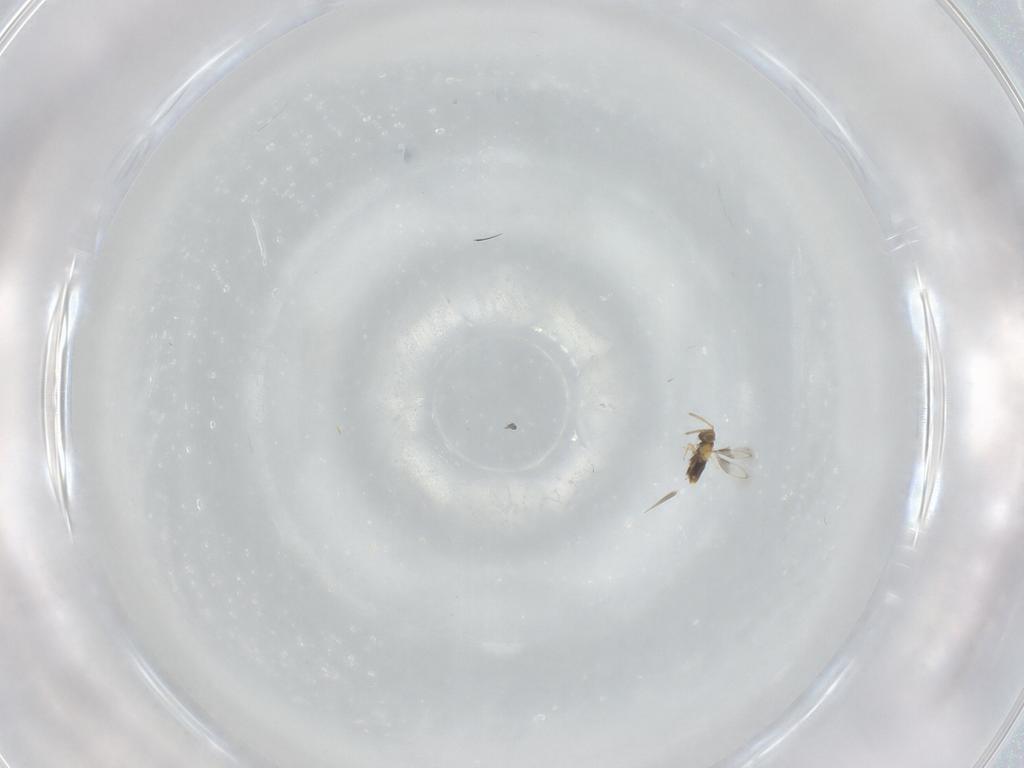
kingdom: Animalia
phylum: Arthropoda
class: Insecta
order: Hymenoptera
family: Aphelinidae
